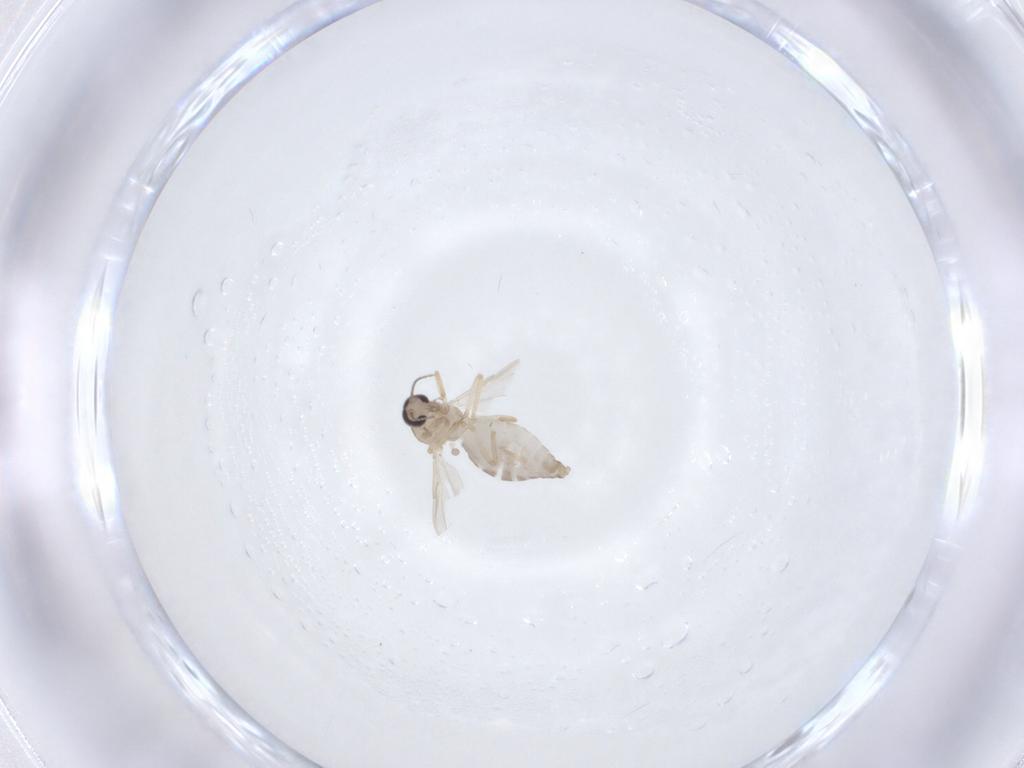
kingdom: Animalia
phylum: Arthropoda
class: Insecta
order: Diptera
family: Ceratopogonidae
